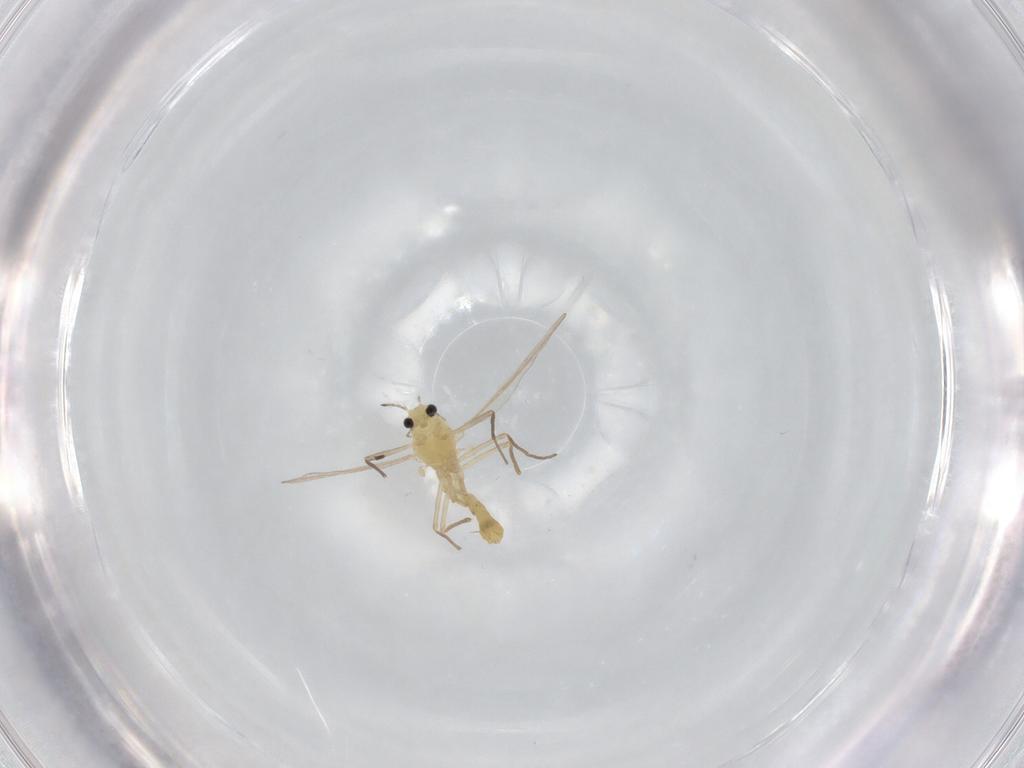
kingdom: Animalia
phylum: Arthropoda
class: Insecta
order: Diptera
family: Chironomidae
